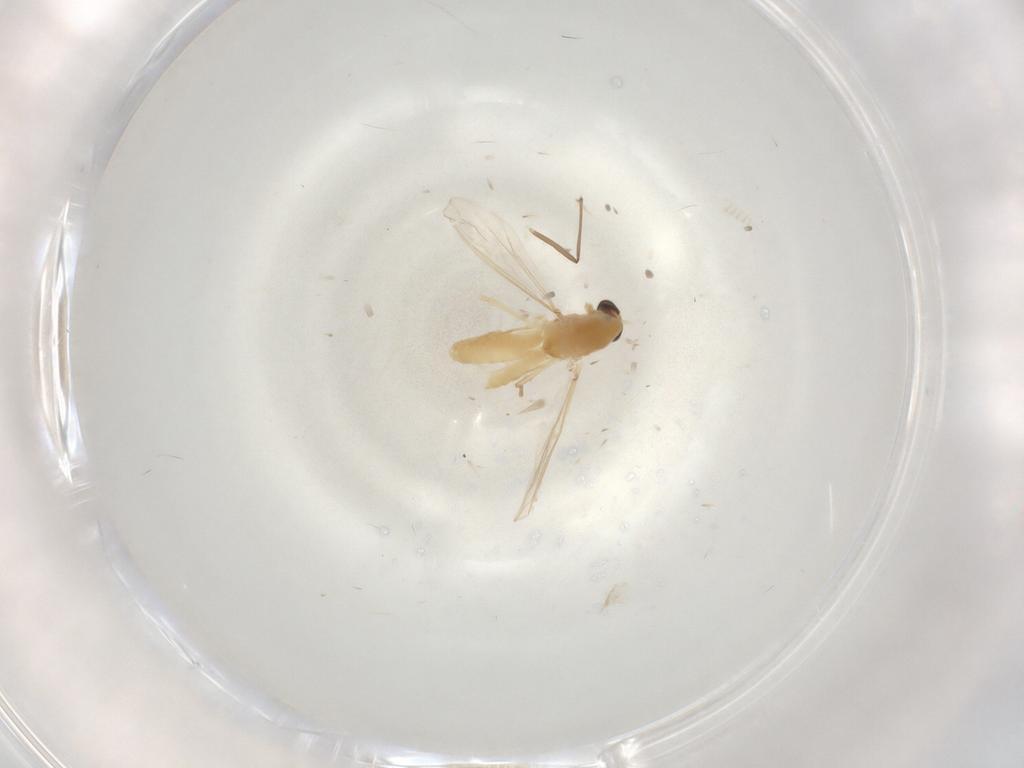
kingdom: Animalia
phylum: Arthropoda
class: Insecta
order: Diptera
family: Chironomidae
